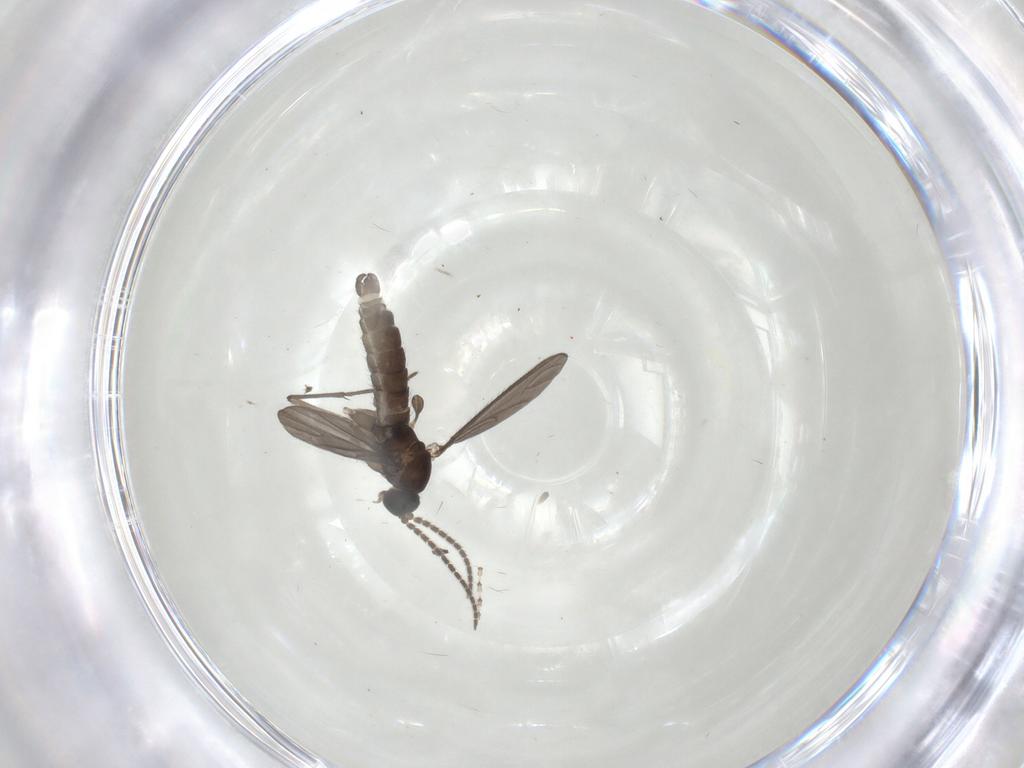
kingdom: Animalia
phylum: Arthropoda
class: Insecta
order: Diptera
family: Sciaridae
